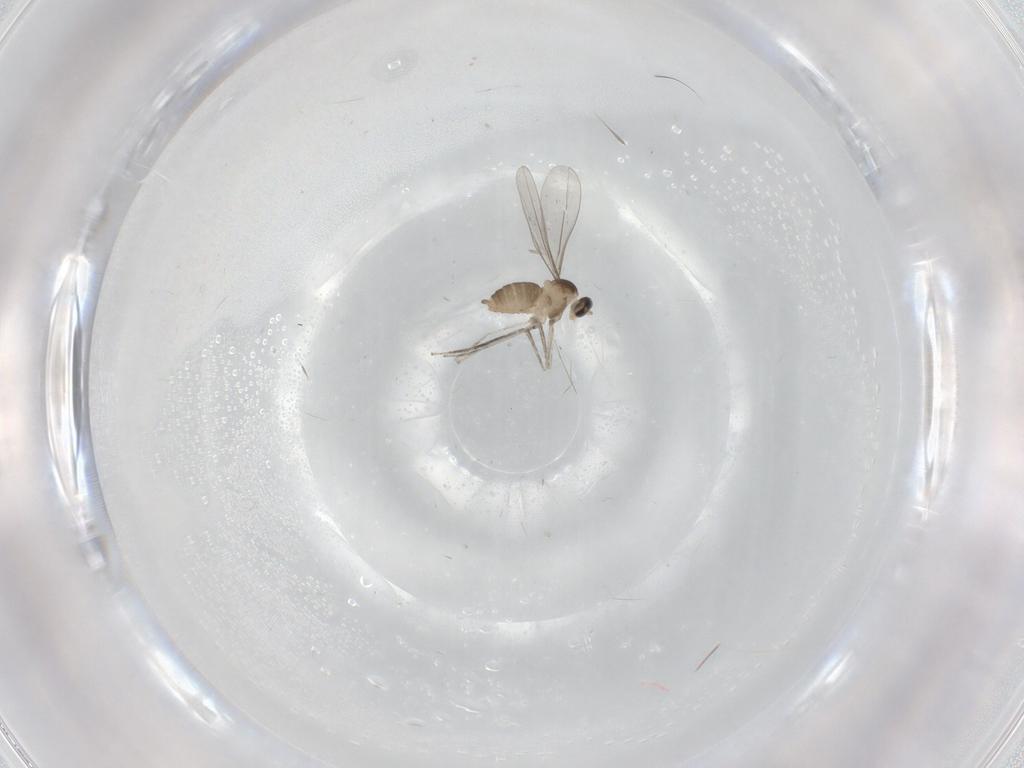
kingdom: Animalia
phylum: Arthropoda
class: Insecta
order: Diptera
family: Cecidomyiidae
